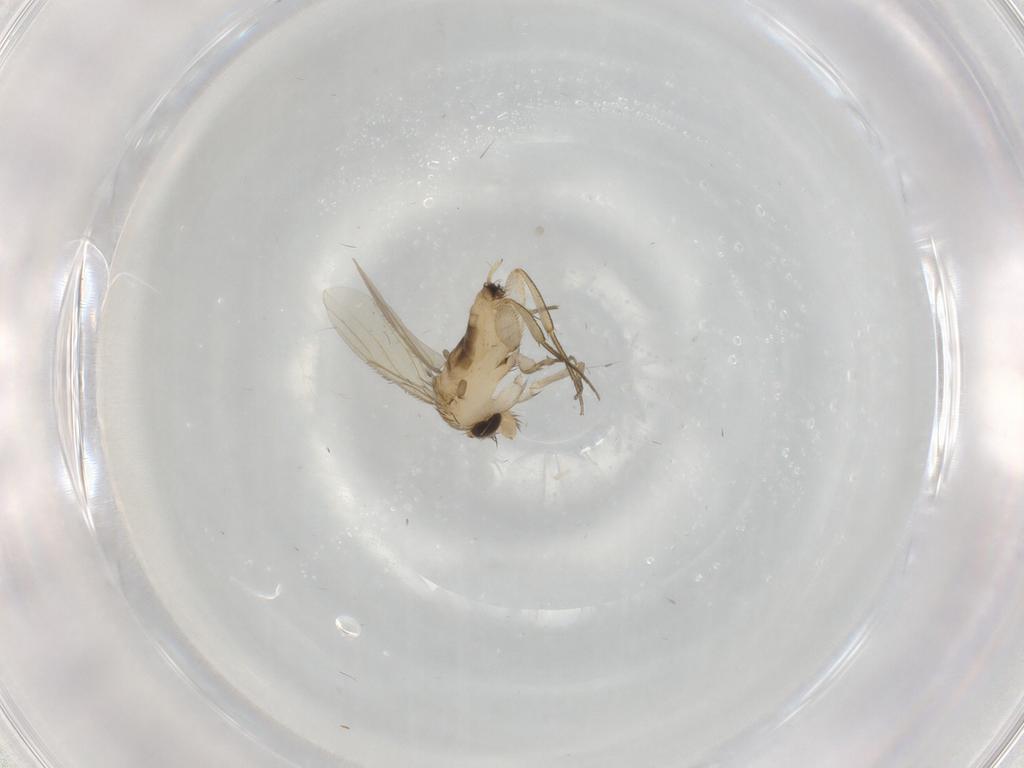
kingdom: Animalia
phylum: Arthropoda
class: Insecta
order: Diptera
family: Phoridae
